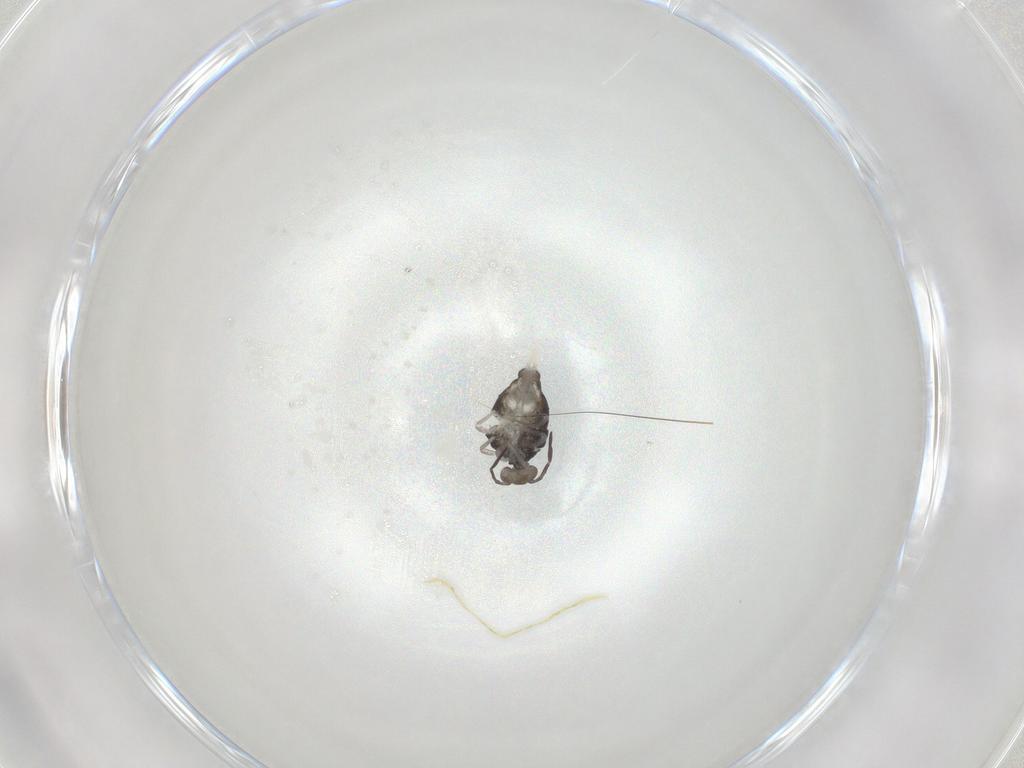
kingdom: Animalia
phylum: Arthropoda
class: Collembola
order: Symphypleona
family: Katiannidae
